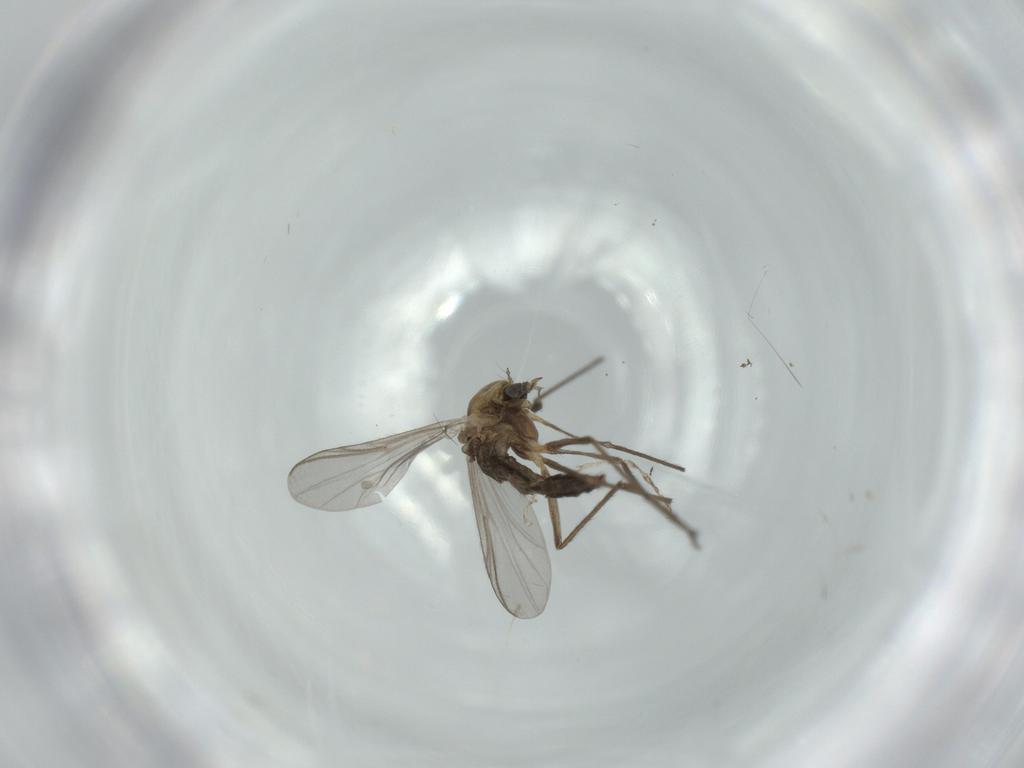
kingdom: Animalia
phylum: Arthropoda
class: Insecta
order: Diptera
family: Chironomidae
